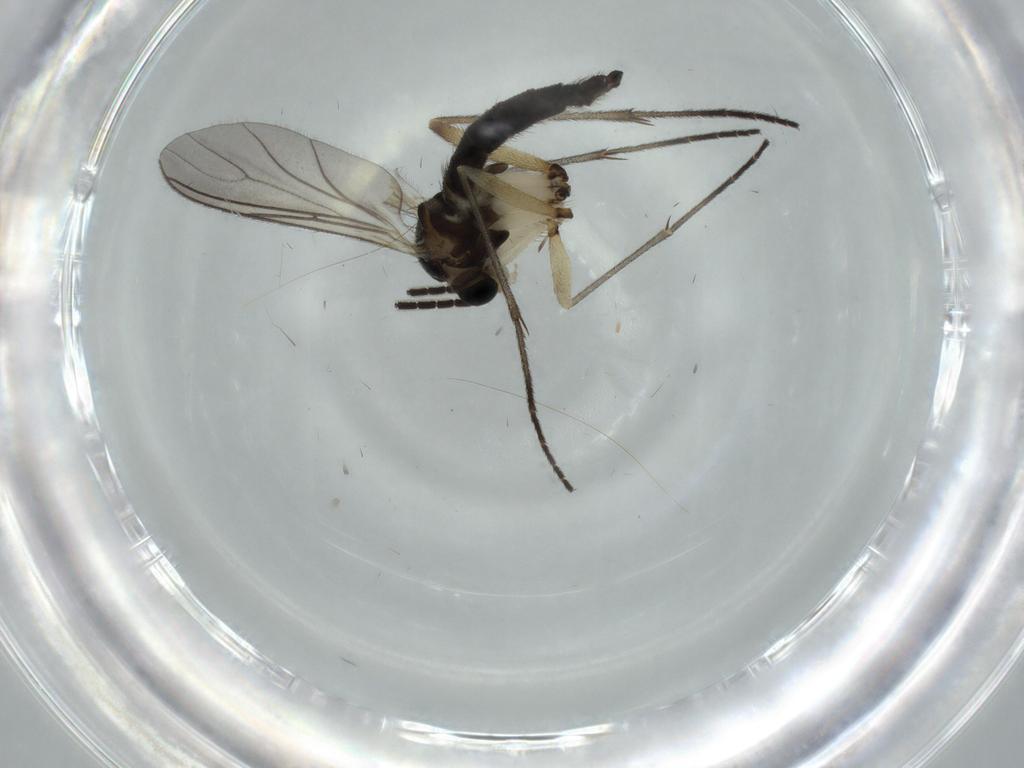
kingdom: Animalia
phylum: Arthropoda
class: Insecta
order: Diptera
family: Sciaridae
